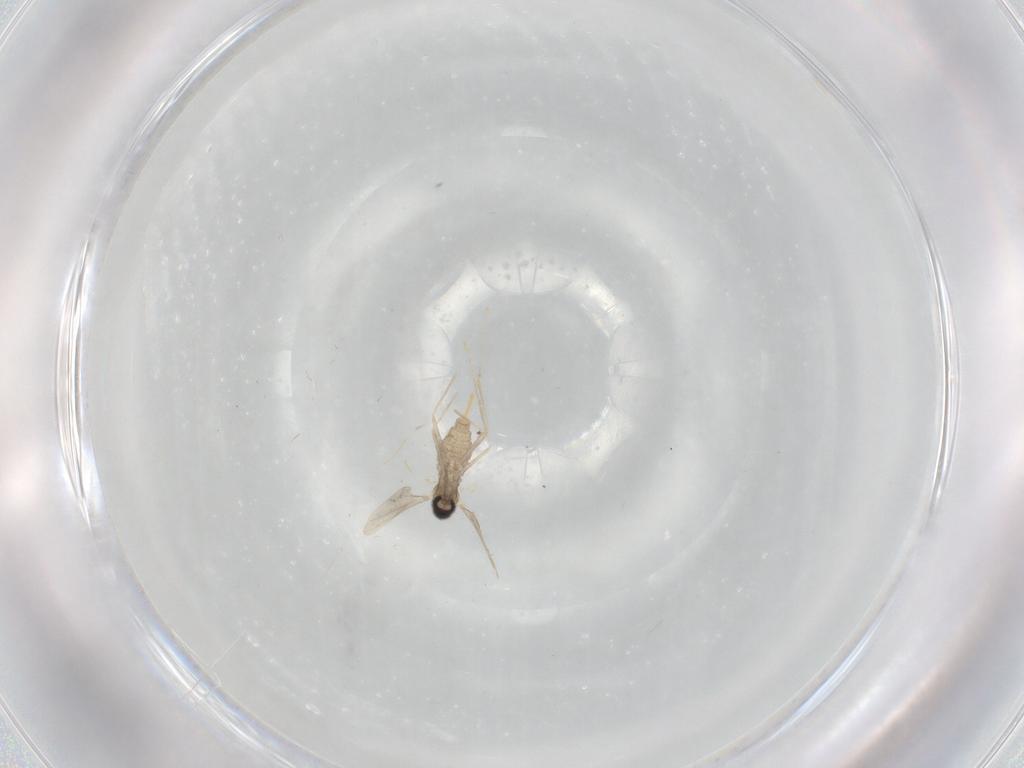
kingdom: Animalia
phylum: Arthropoda
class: Insecta
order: Diptera
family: Cecidomyiidae
